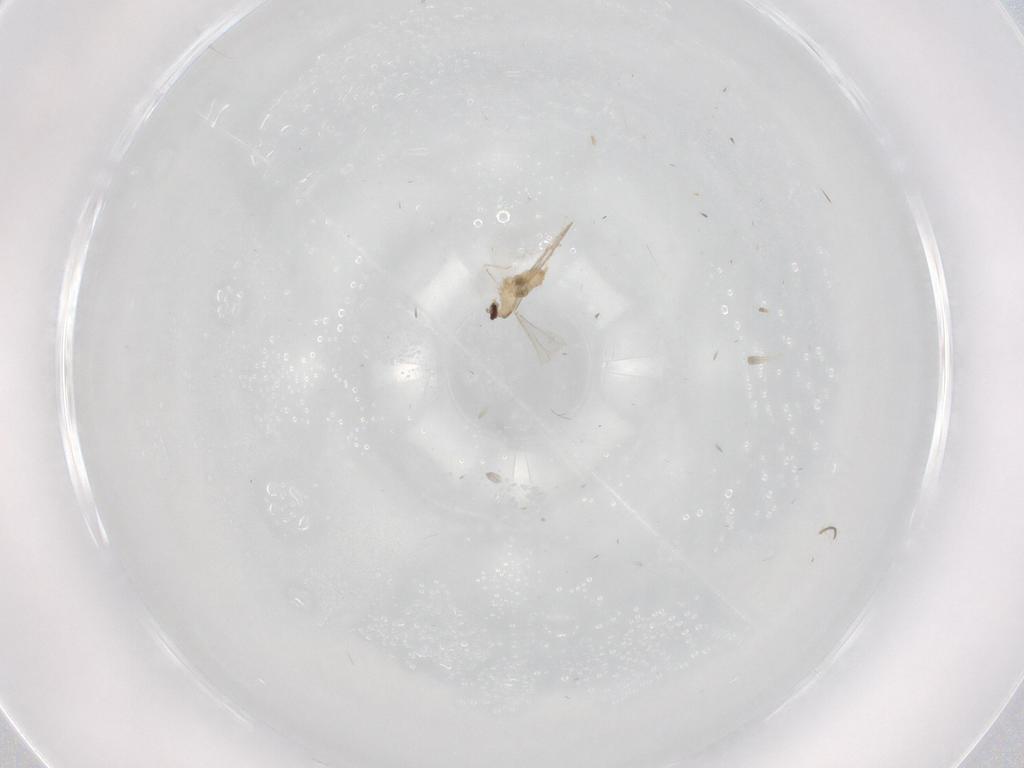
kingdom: Animalia
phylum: Arthropoda
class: Insecta
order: Diptera
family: Cecidomyiidae
